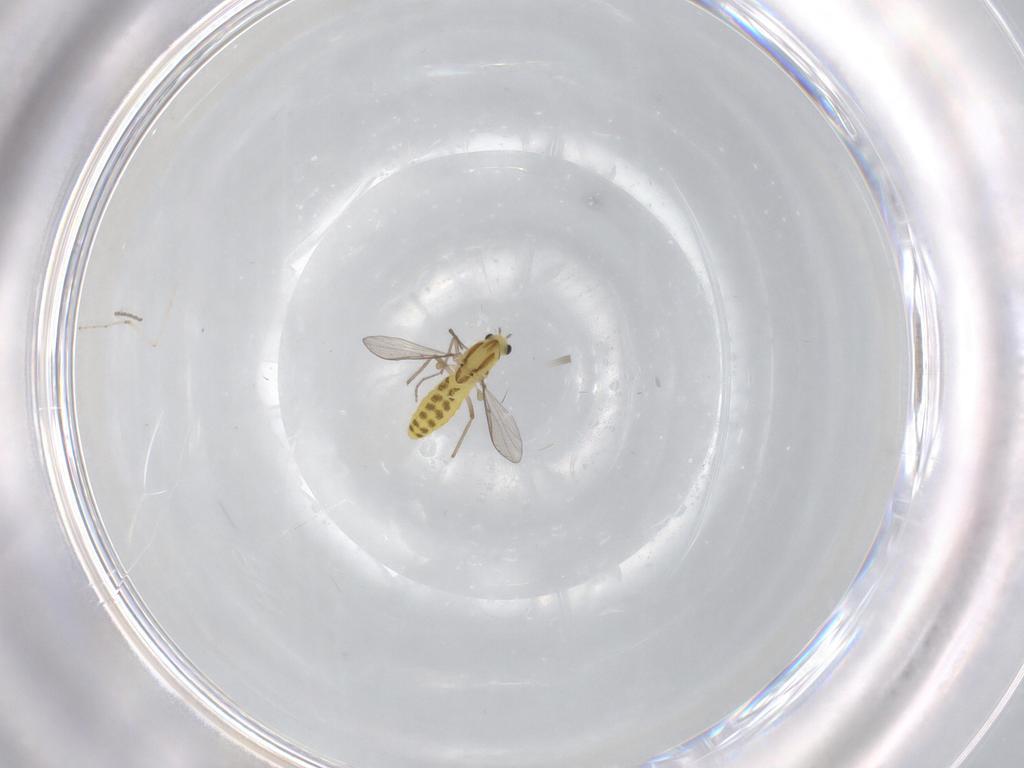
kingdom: Animalia
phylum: Arthropoda
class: Insecta
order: Diptera
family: Chironomidae
